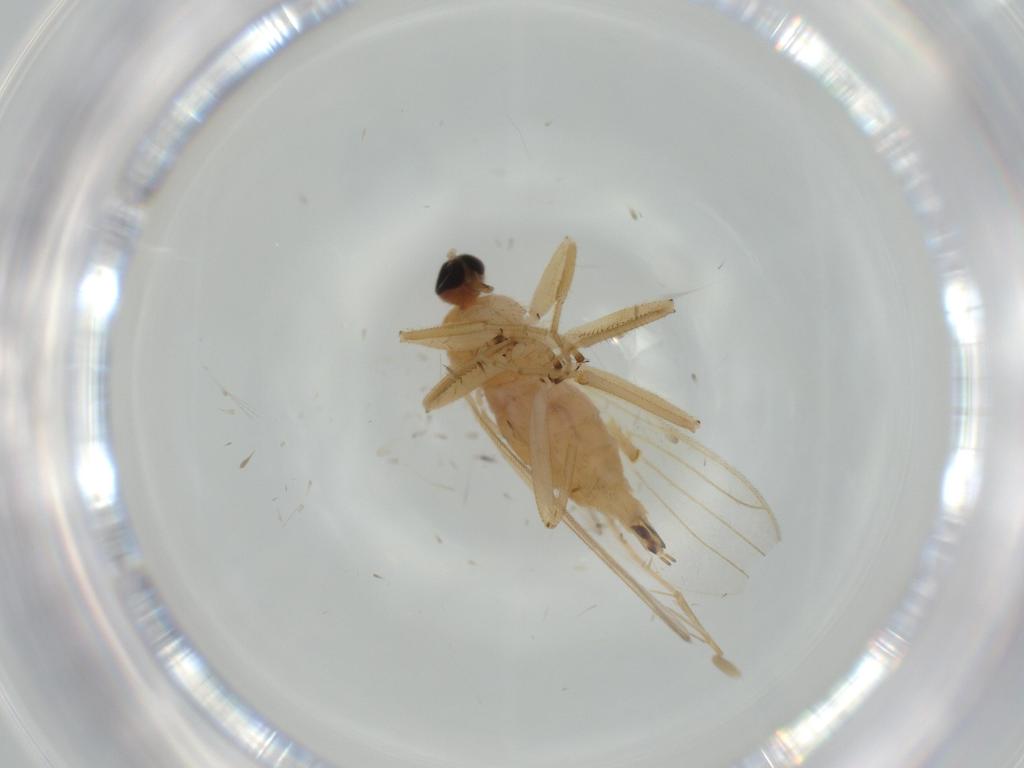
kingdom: Animalia
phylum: Arthropoda
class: Insecta
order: Diptera
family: Hybotidae
